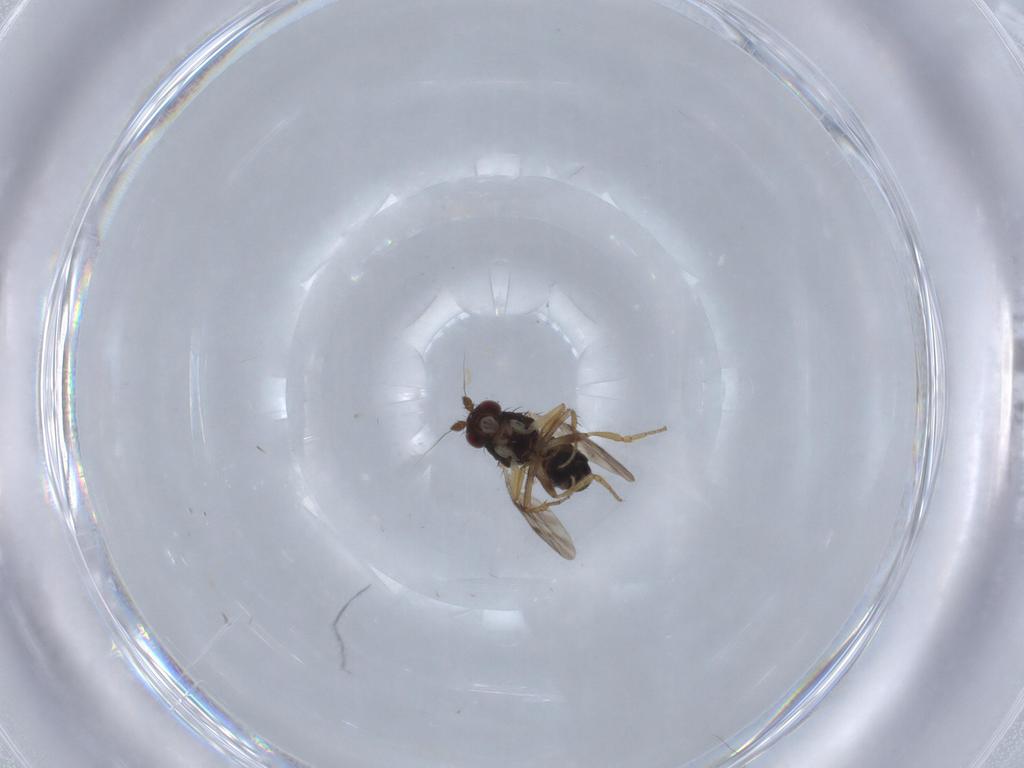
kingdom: Animalia
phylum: Arthropoda
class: Insecta
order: Diptera
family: Sphaeroceridae
